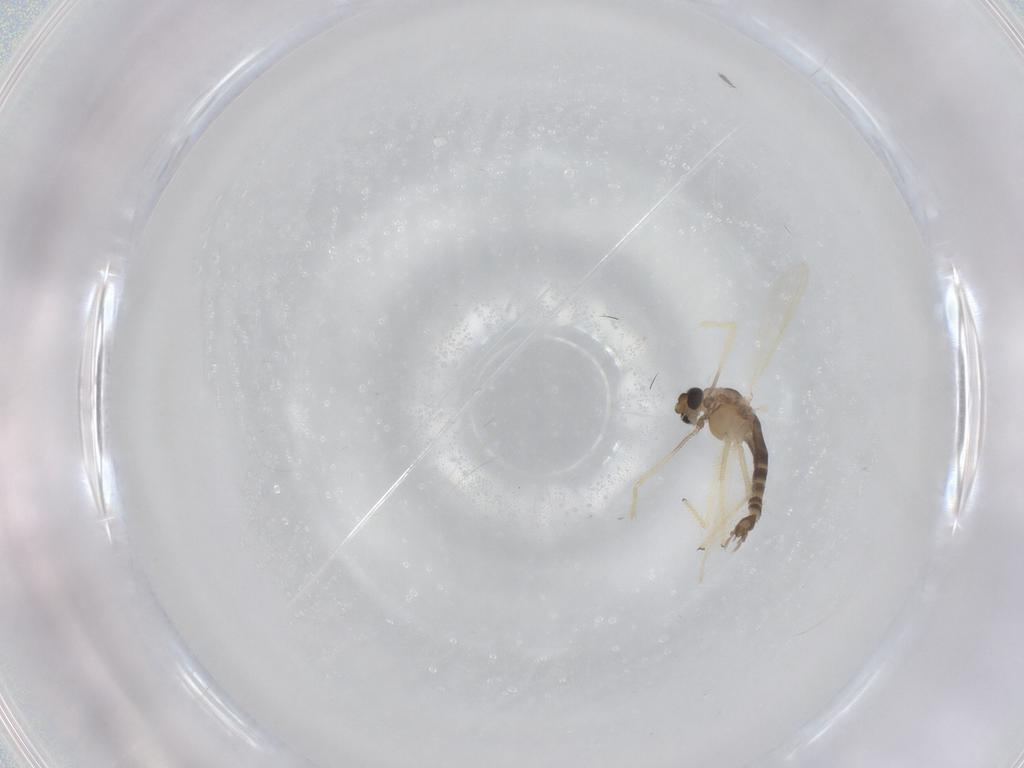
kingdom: Animalia
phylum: Arthropoda
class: Insecta
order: Diptera
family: Chironomidae
